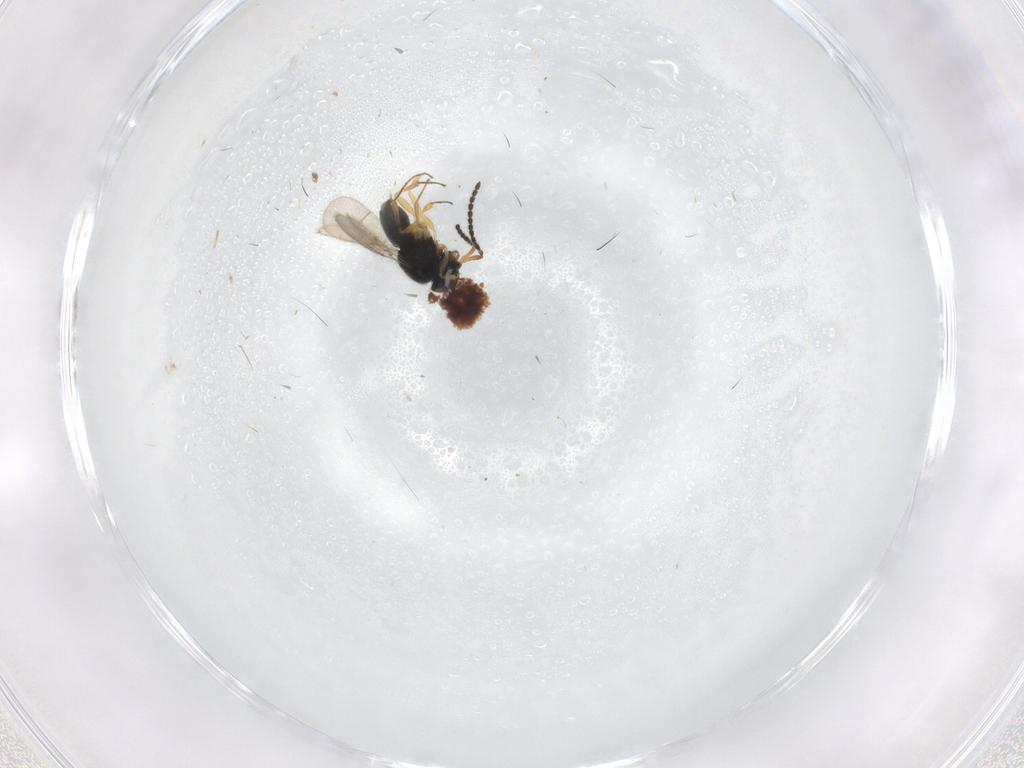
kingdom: Animalia
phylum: Arthropoda
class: Insecta
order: Hymenoptera
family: Scelionidae
